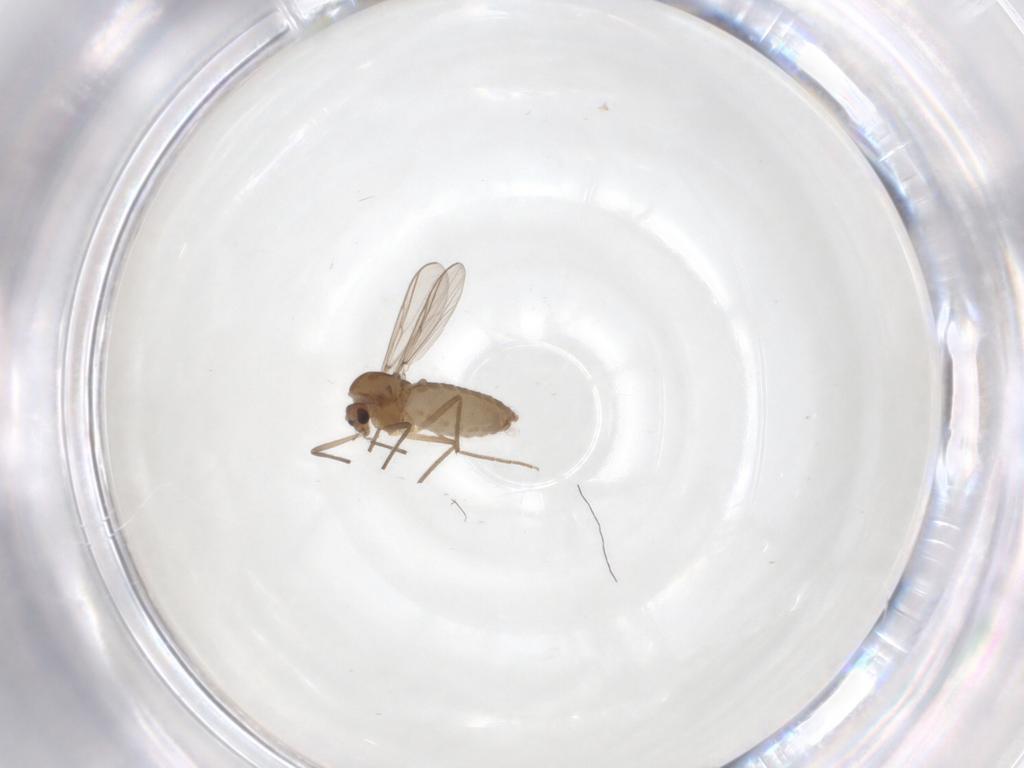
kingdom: Animalia
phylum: Arthropoda
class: Insecta
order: Diptera
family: Chironomidae
